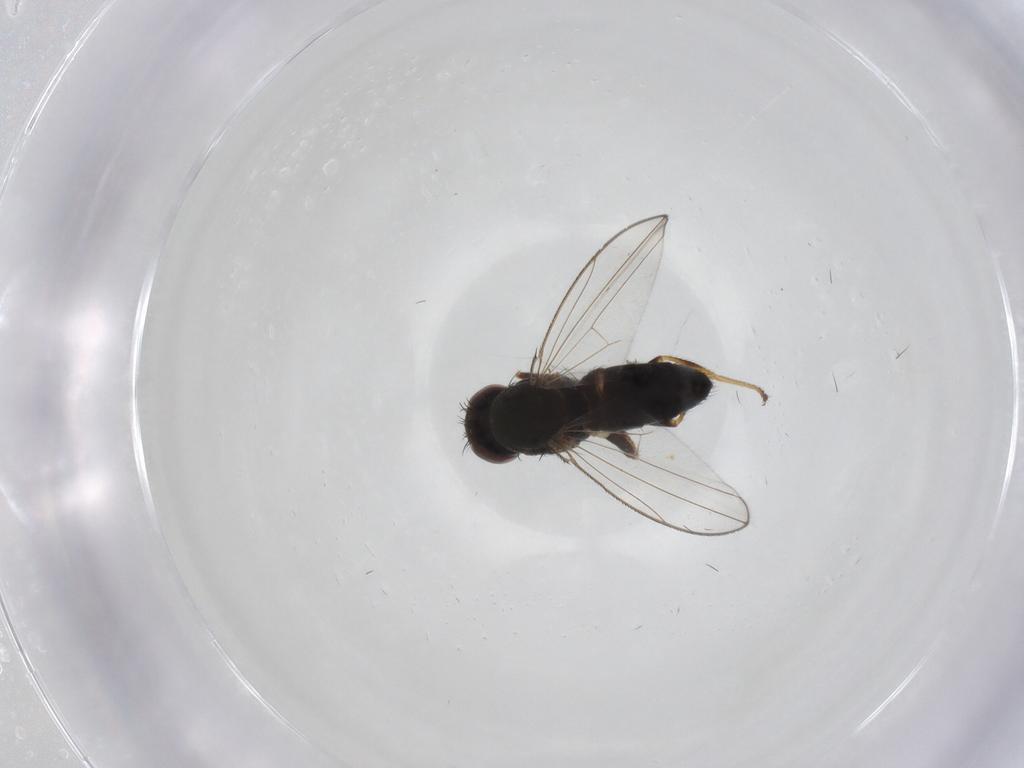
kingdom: Animalia
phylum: Arthropoda
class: Insecta
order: Diptera
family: Ephydridae
